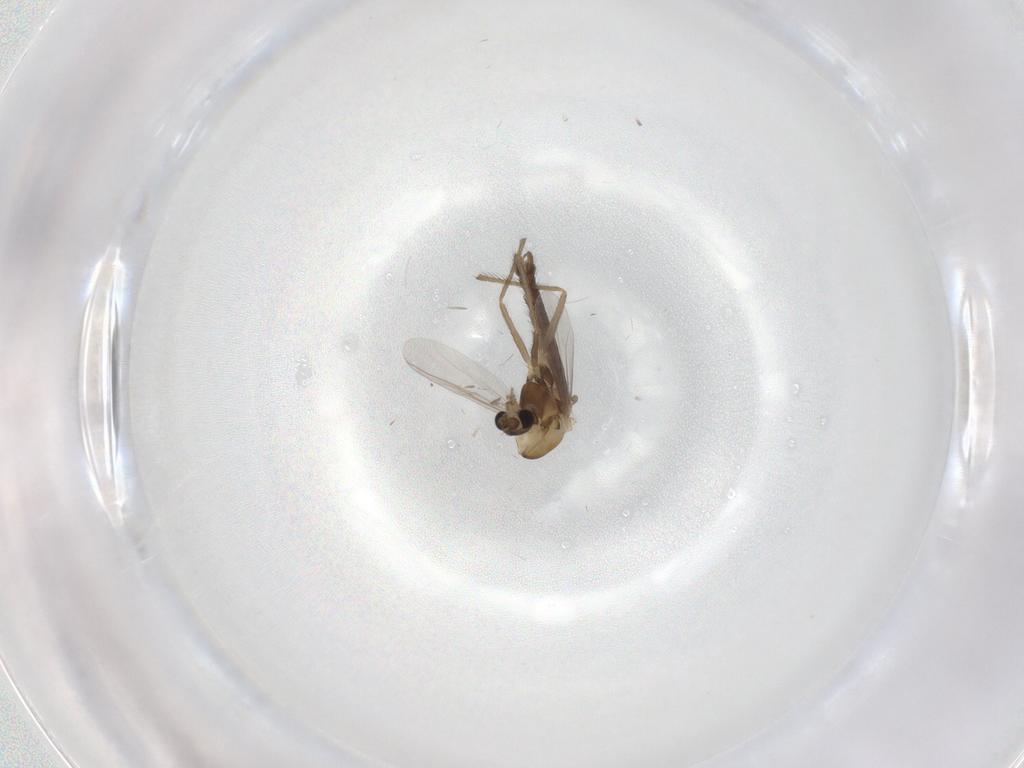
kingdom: Animalia
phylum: Arthropoda
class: Insecta
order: Diptera
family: Chironomidae
